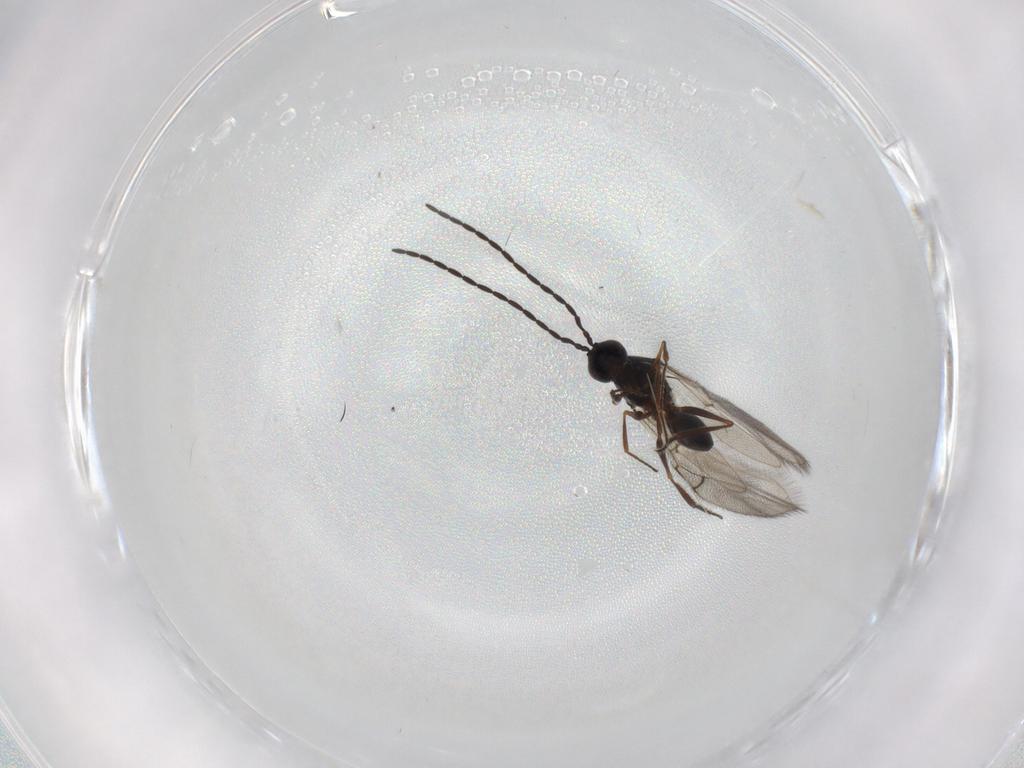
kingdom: Animalia
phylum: Arthropoda
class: Insecta
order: Hymenoptera
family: Figitidae
